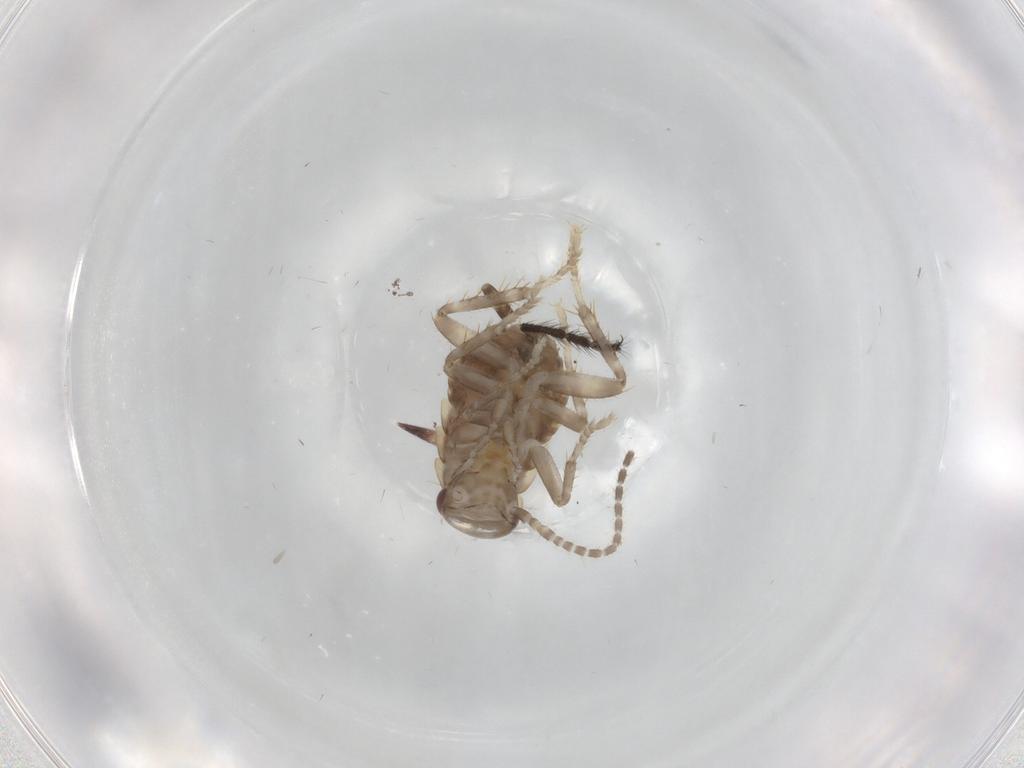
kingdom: Animalia
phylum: Arthropoda
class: Insecta
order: Blattodea
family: Ectobiidae
